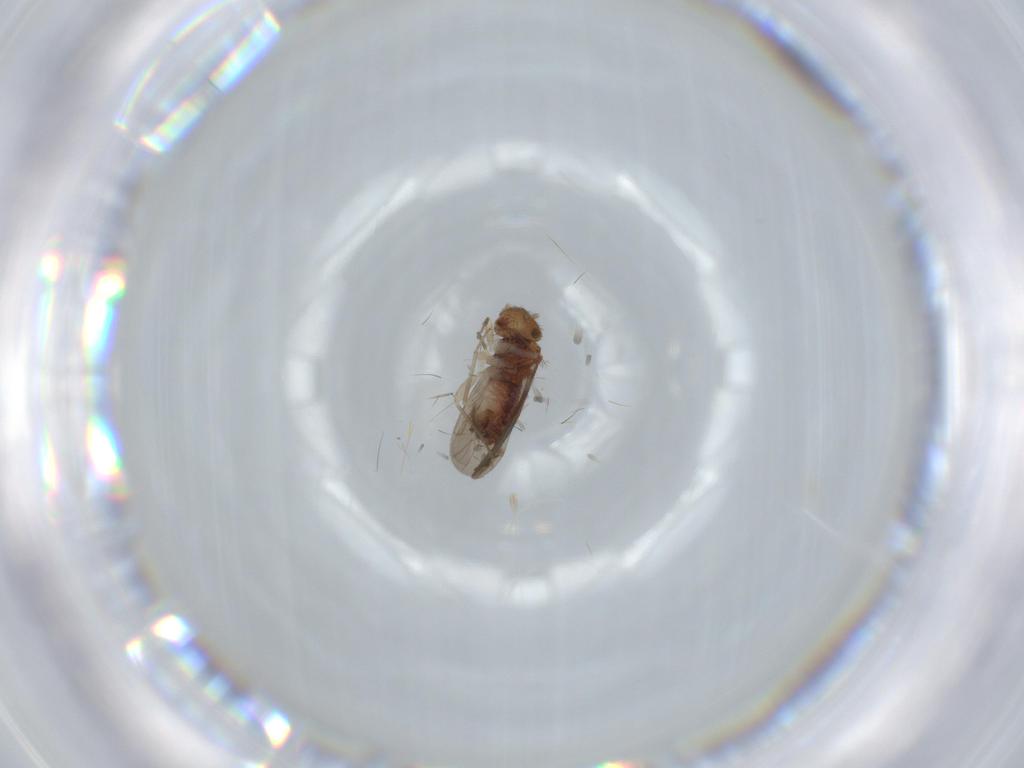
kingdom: Animalia
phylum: Arthropoda
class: Insecta
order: Psocodea
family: Ectopsocidae
